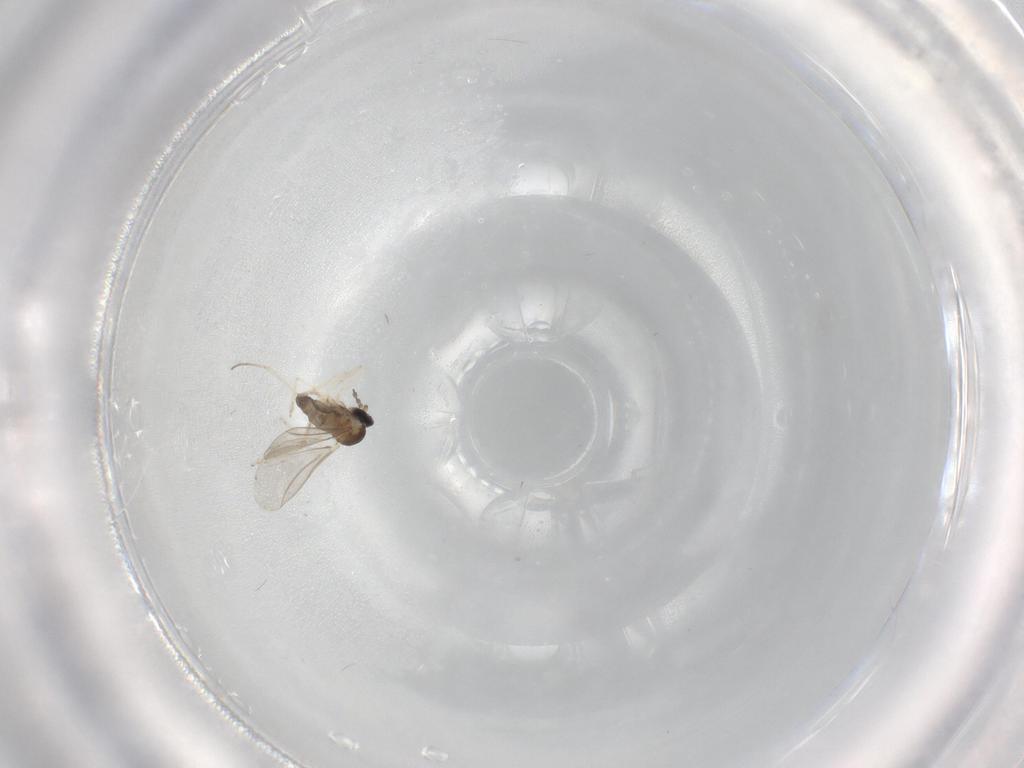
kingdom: Animalia
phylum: Arthropoda
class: Insecta
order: Diptera
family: Cecidomyiidae
